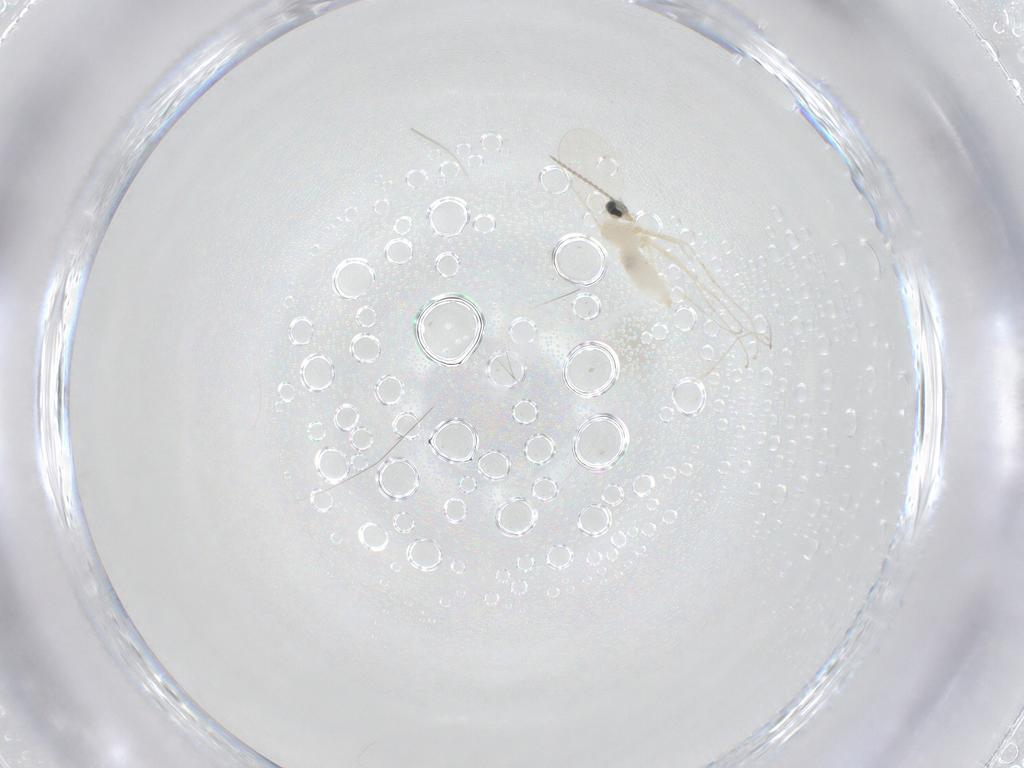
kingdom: Animalia
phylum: Arthropoda
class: Insecta
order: Diptera
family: Ceratopogonidae
